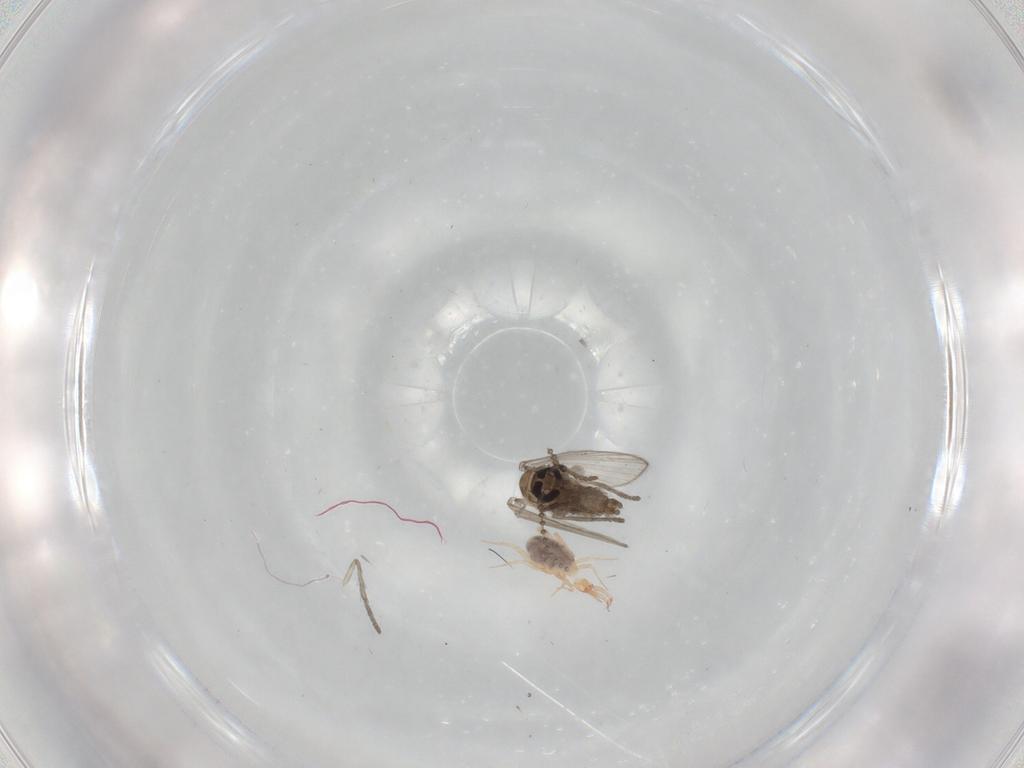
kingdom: Animalia
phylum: Arthropoda
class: Insecta
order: Diptera
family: Psychodidae
